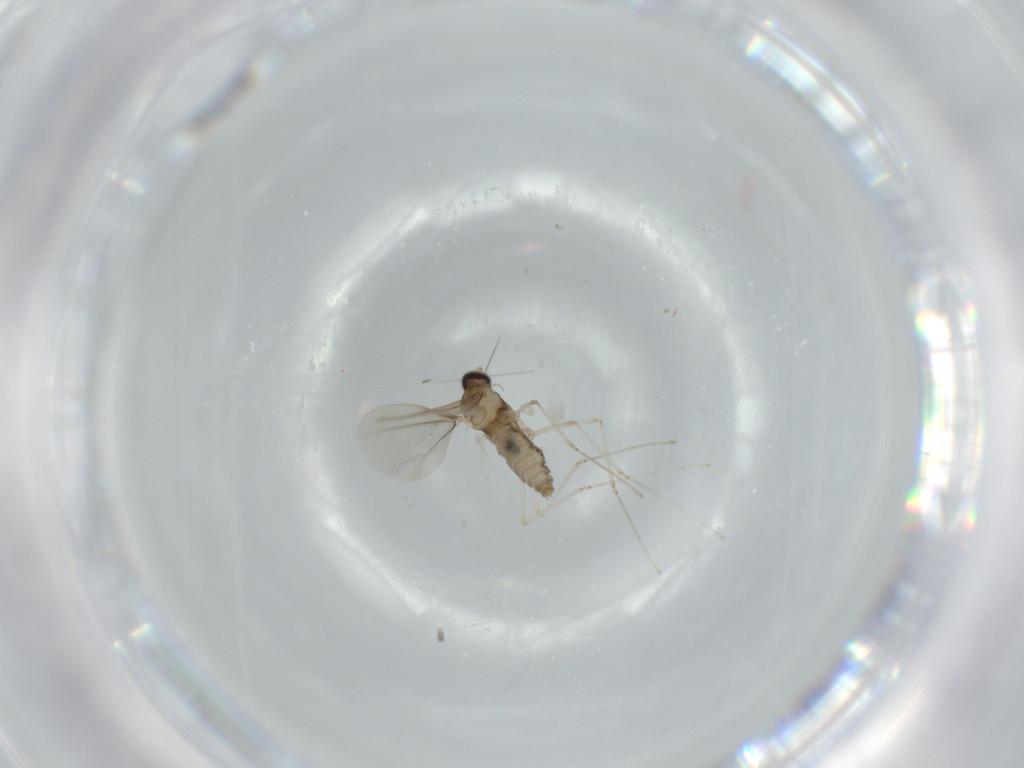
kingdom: Animalia
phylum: Arthropoda
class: Insecta
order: Diptera
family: Cecidomyiidae
